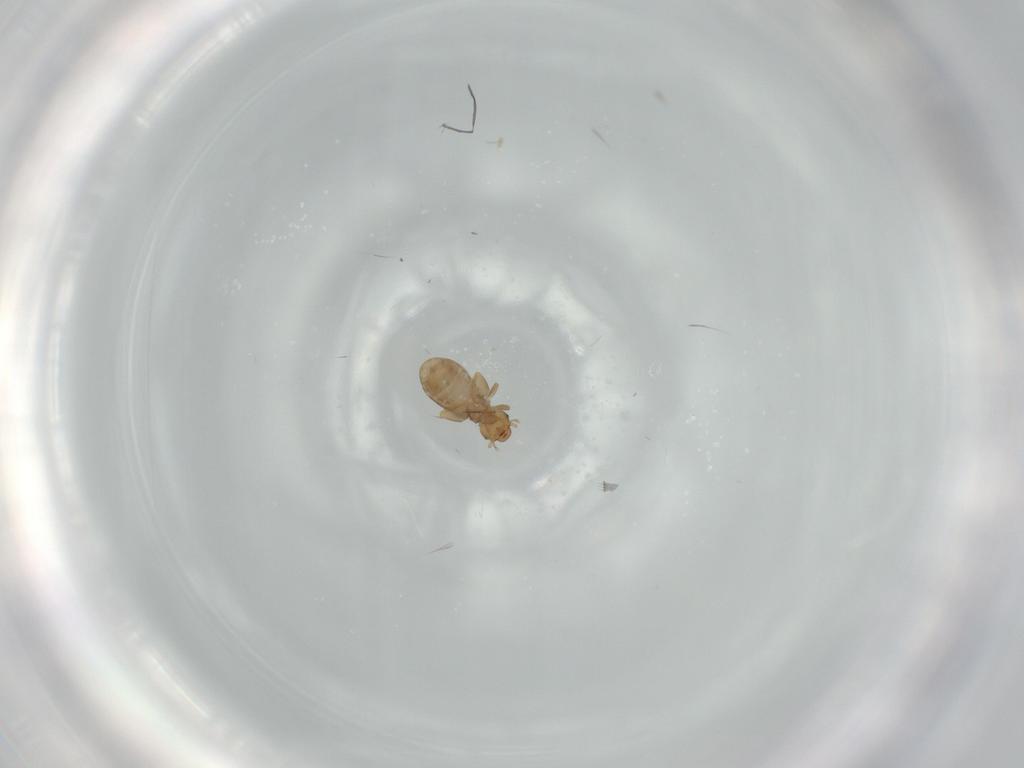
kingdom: Animalia
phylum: Arthropoda
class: Insecta
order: Psocodea
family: Liposcelididae
